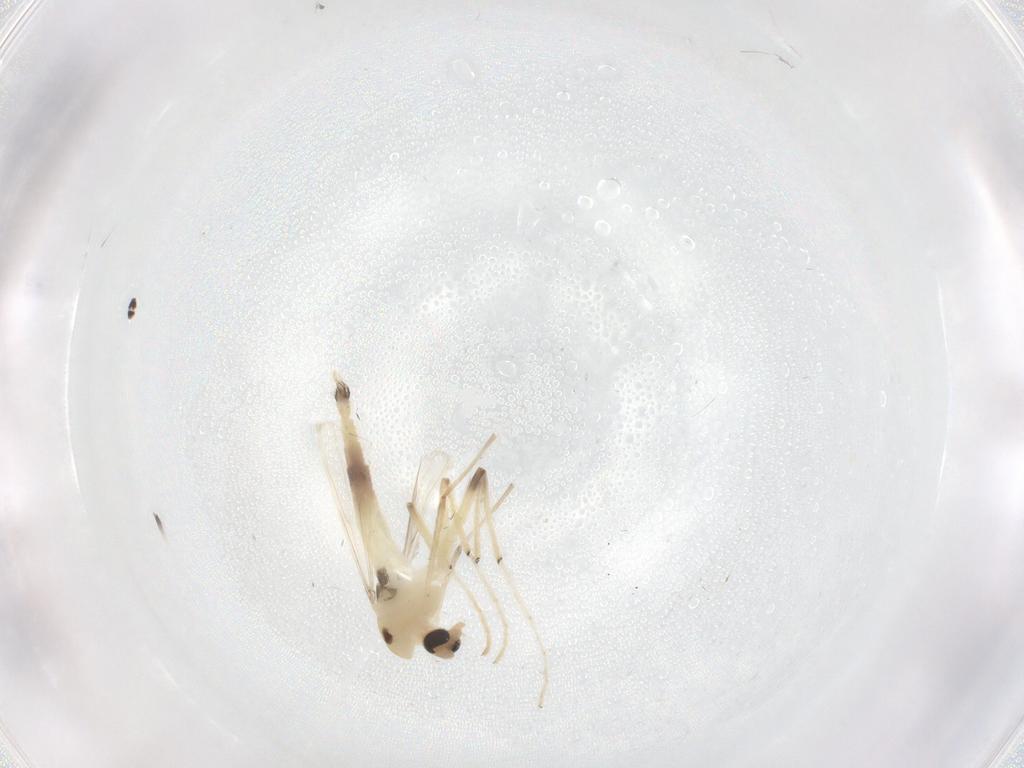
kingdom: Animalia
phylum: Arthropoda
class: Insecta
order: Diptera
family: Chironomidae
